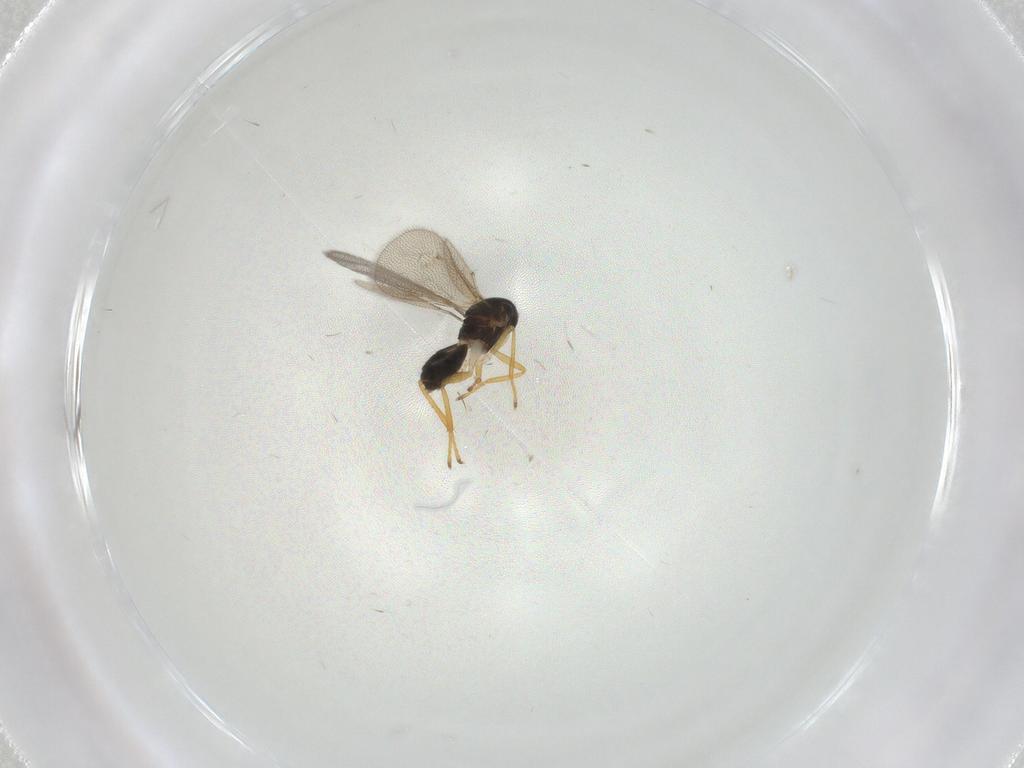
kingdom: Animalia
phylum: Arthropoda
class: Insecta
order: Hymenoptera
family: Eulophidae
